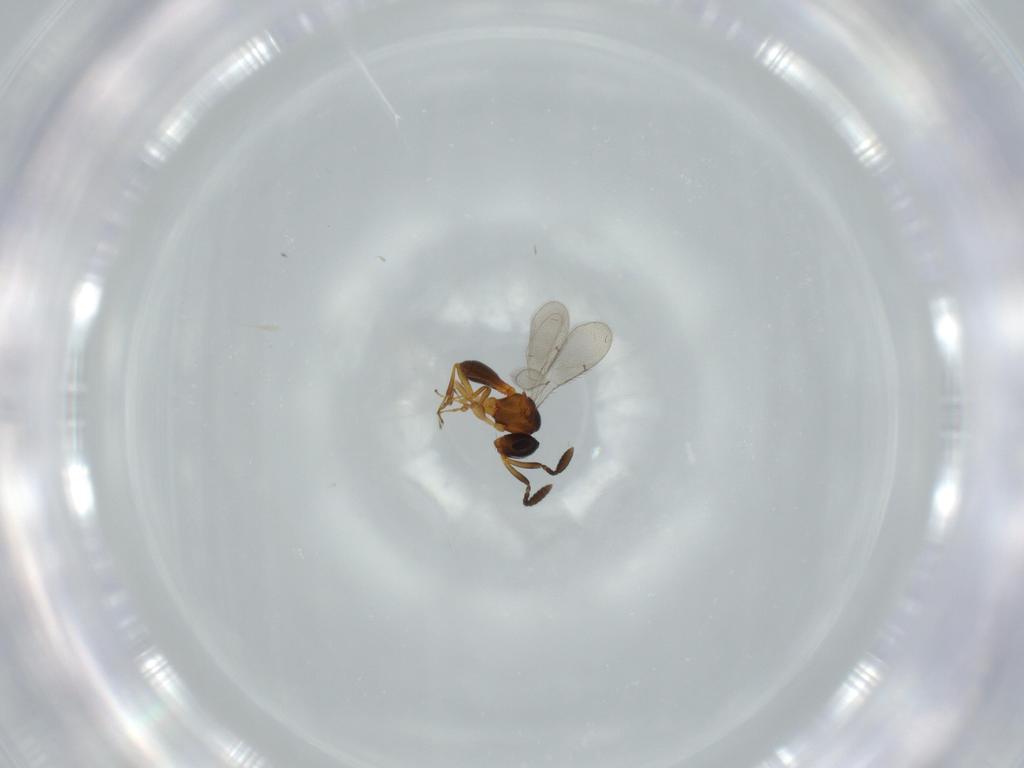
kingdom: Animalia
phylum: Arthropoda
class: Insecta
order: Hymenoptera
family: Scelionidae
